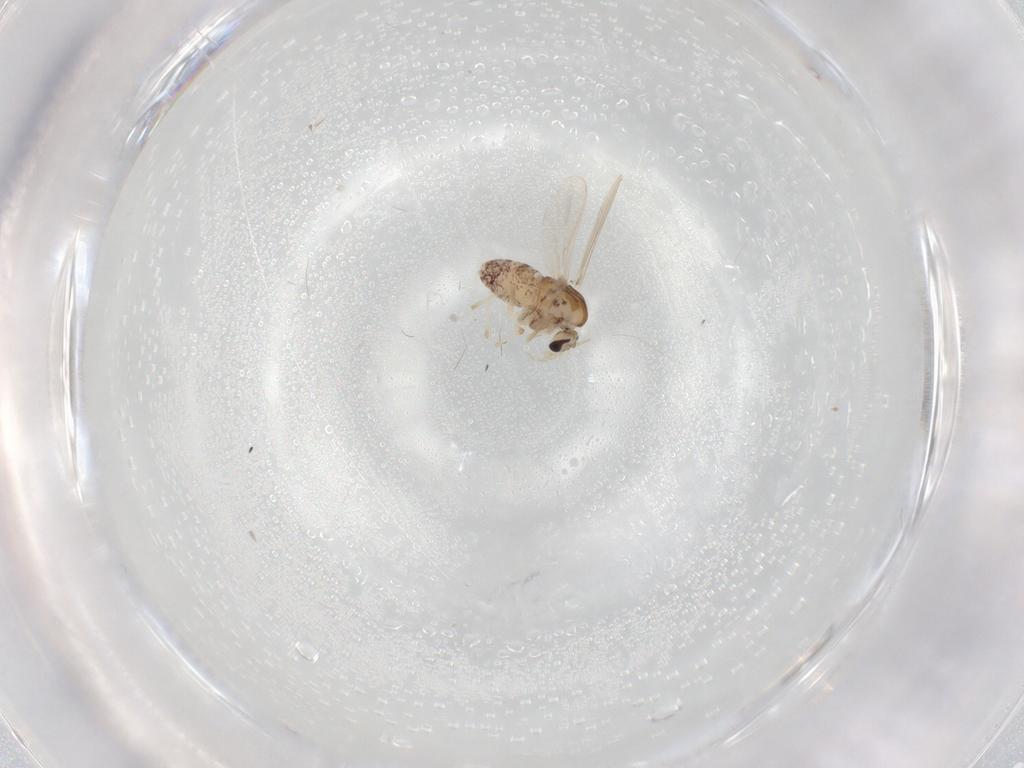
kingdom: Animalia
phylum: Arthropoda
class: Insecta
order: Diptera
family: Chironomidae
